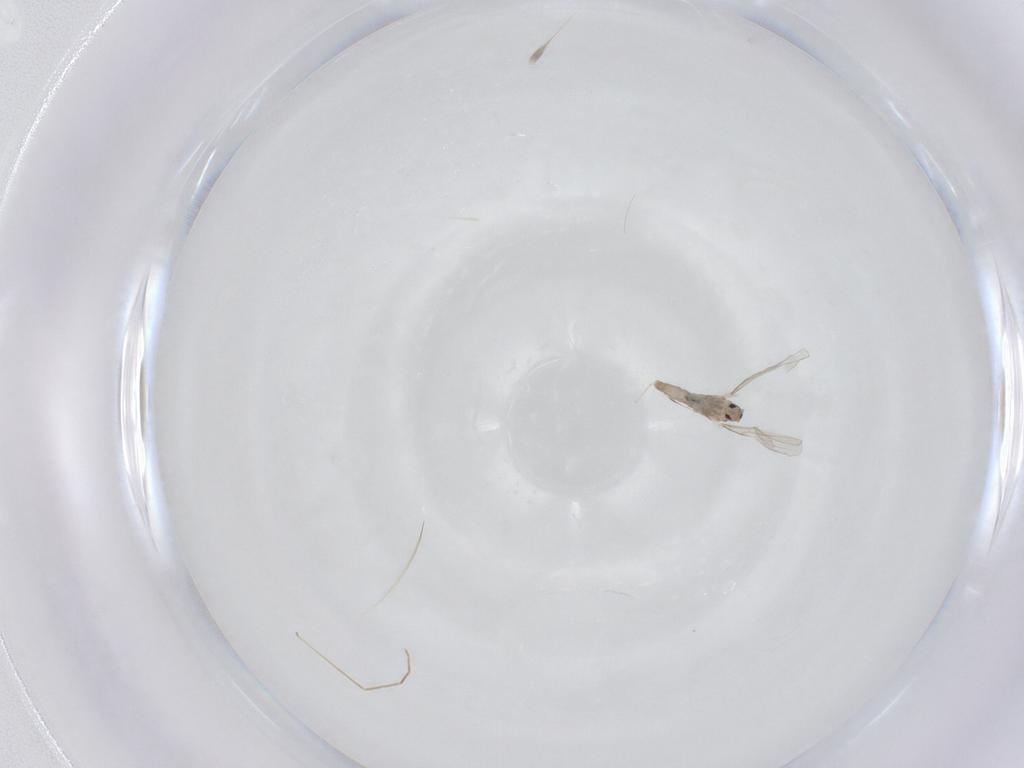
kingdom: Animalia
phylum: Arthropoda
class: Insecta
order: Diptera
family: Cecidomyiidae
